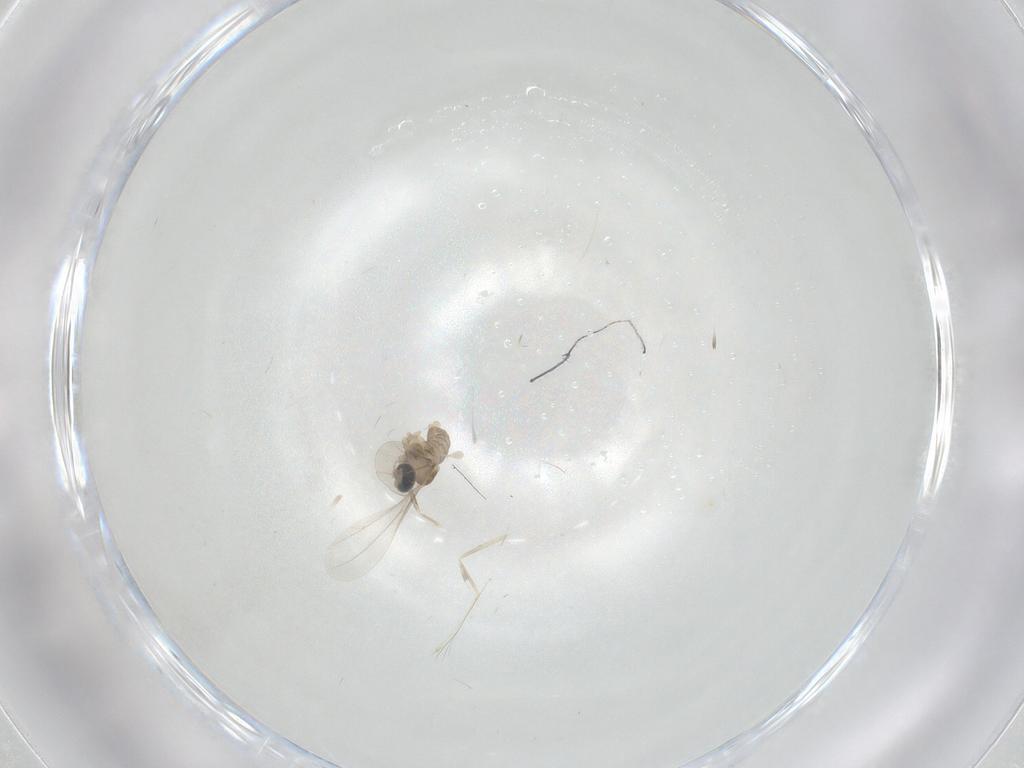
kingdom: Animalia
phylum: Arthropoda
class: Insecta
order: Diptera
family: Cecidomyiidae
